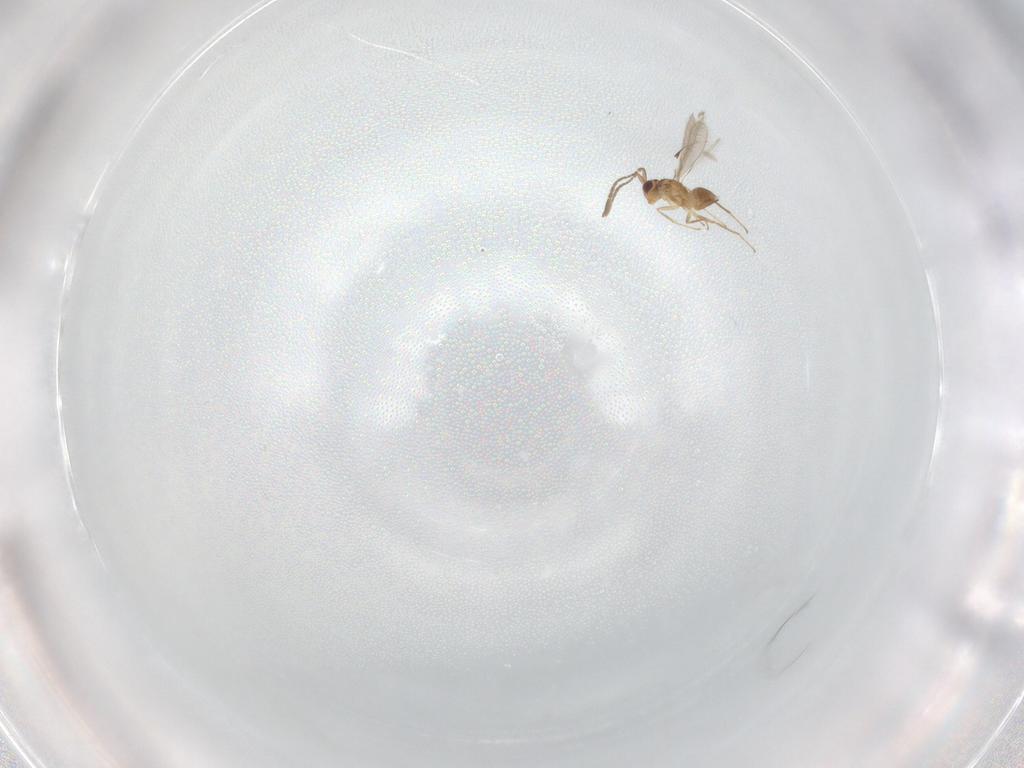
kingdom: Animalia
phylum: Arthropoda
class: Insecta
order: Hymenoptera
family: Mymaridae
